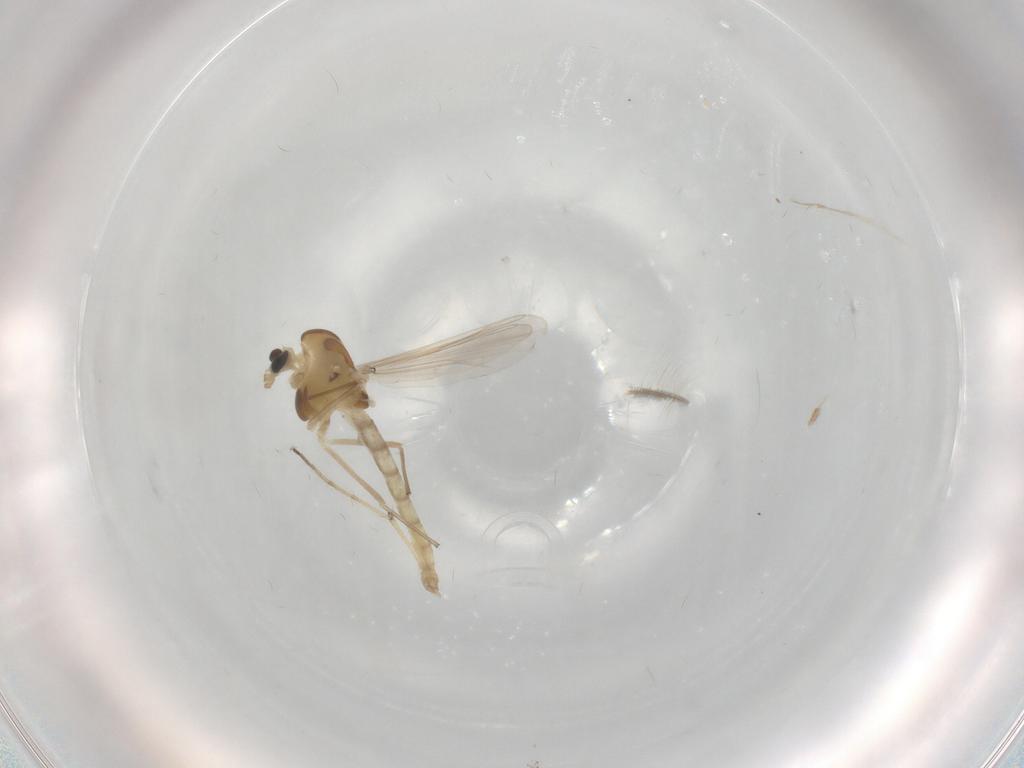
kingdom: Animalia
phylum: Arthropoda
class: Insecta
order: Diptera
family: Chironomidae
